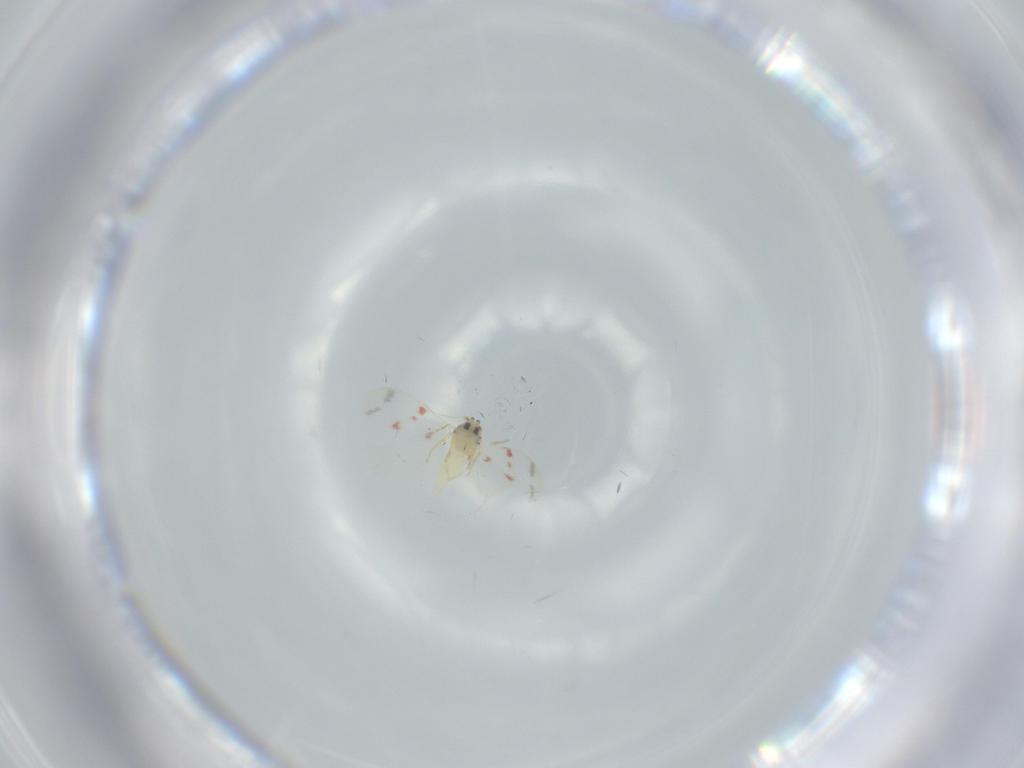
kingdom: Animalia
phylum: Arthropoda
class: Insecta
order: Hemiptera
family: Aleyrodidae
